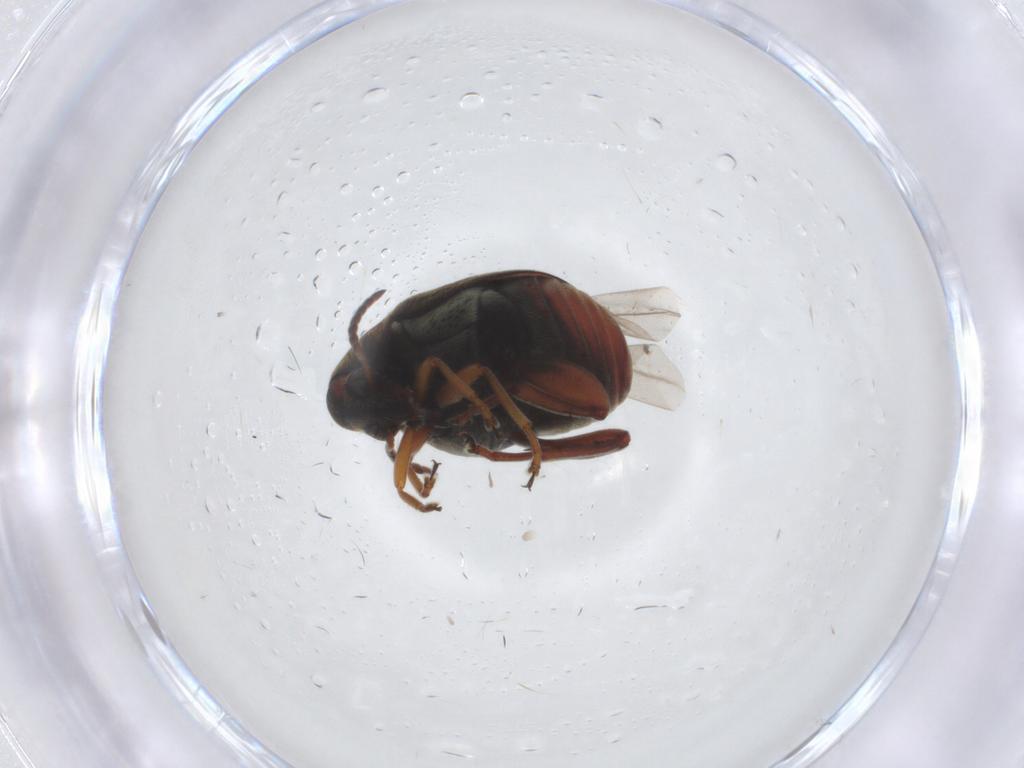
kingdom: Animalia
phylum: Arthropoda
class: Insecta
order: Coleoptera
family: Chrysomelidae
